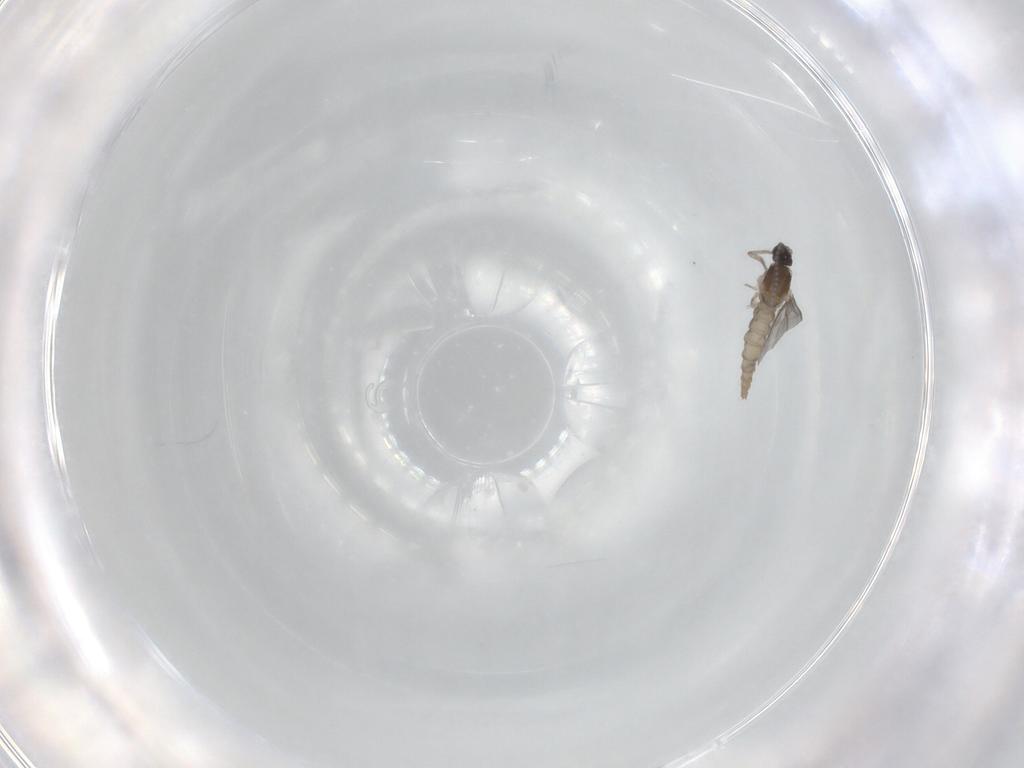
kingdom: Animalia
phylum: Arthropoda
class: Insecta
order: Diptera
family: Cecidomyiidae
